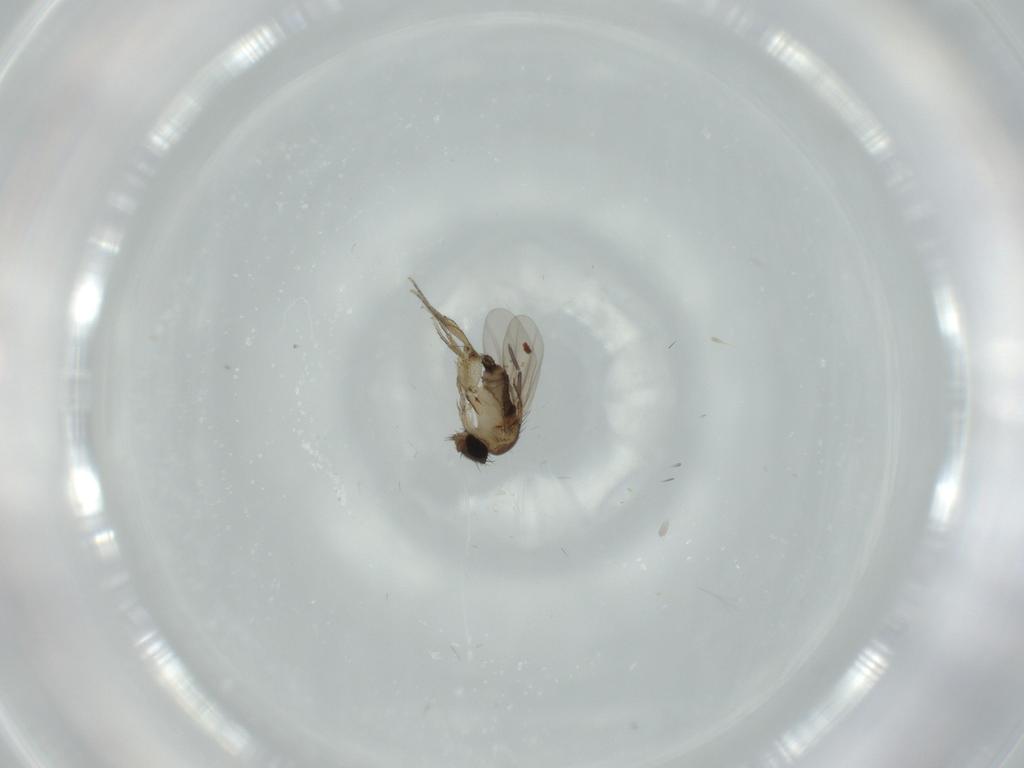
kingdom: Animalia
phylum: Arthropoda
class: Insecta
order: Diptera
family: Phoridae
